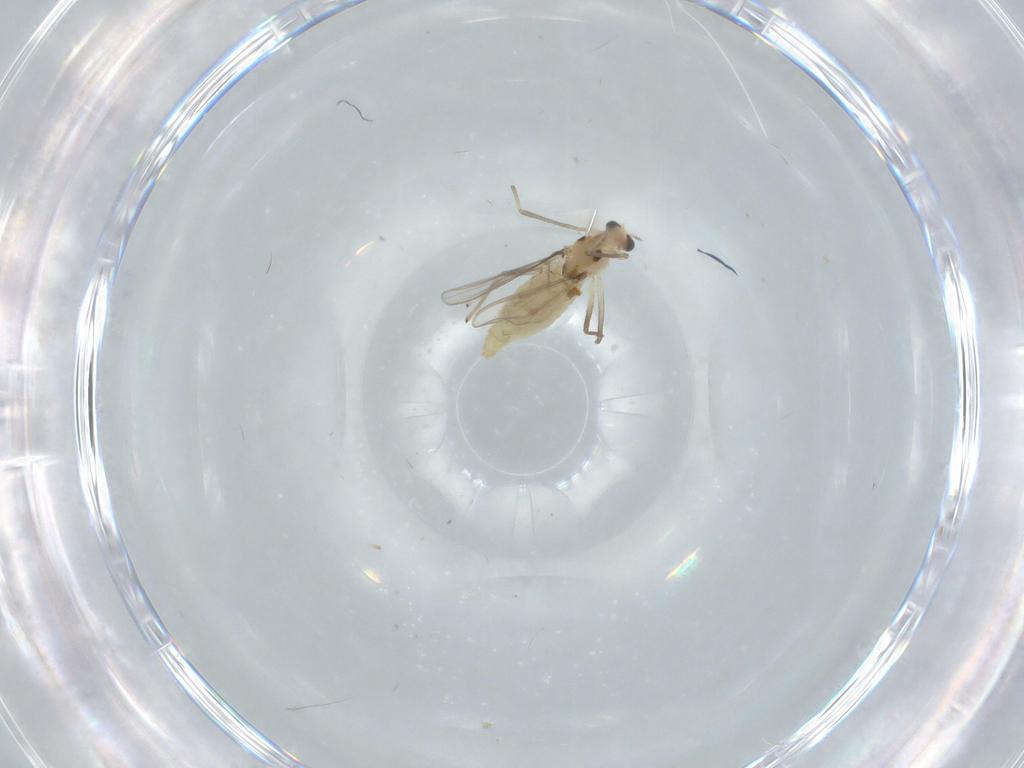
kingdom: Animalia
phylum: Arthropoda
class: Insecta
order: Diptera
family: Chironomidae
